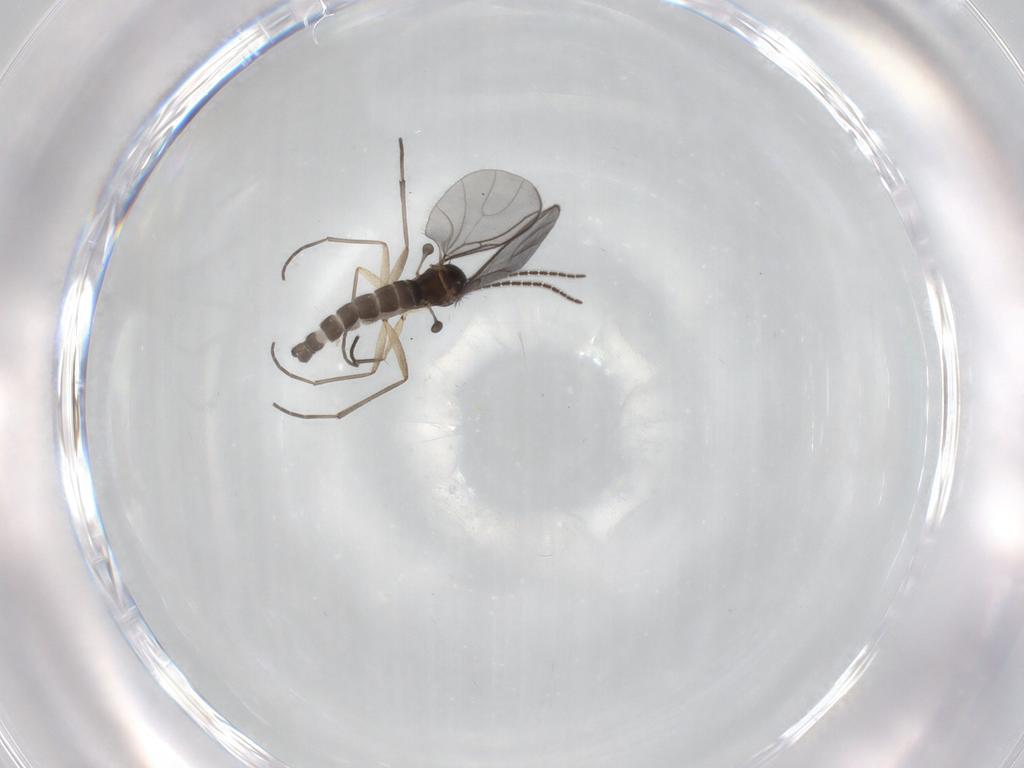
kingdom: Animalia
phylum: Arthropoda
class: Insecta
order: Diptera
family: Sciaridae
